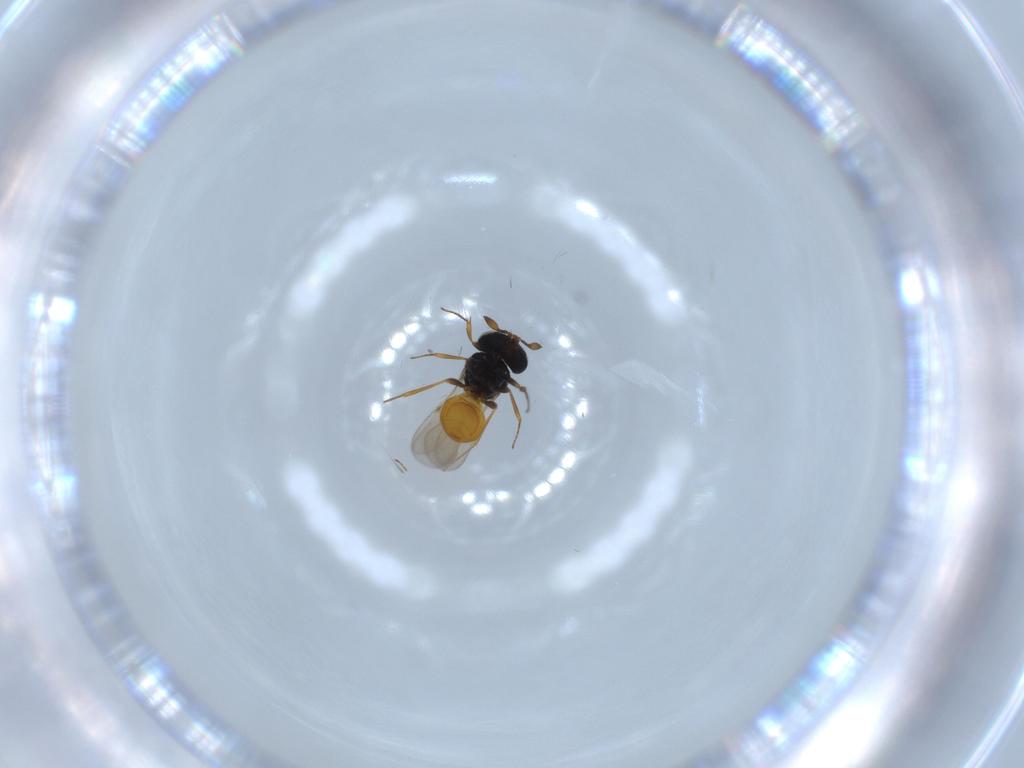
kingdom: Animalia
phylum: Arthropoda
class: Insecta
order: Hymenoptera
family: Scelionidae
